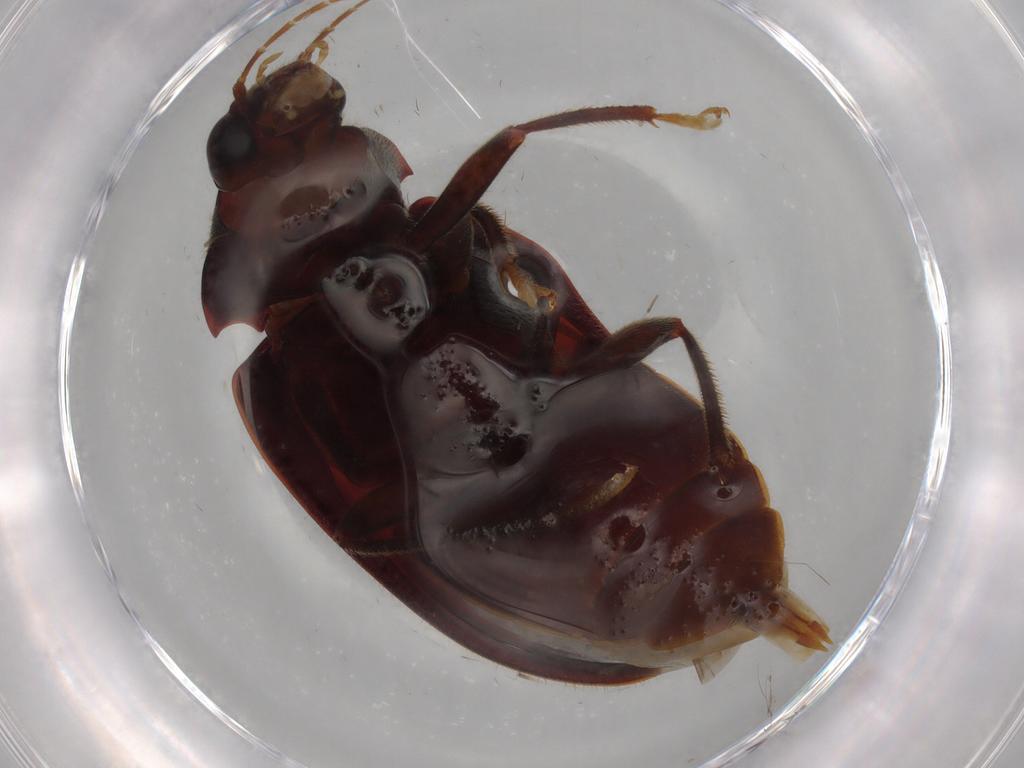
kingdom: Animalia
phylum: Arthropoda
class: Insecta
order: Coleoptera
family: Ptilodactylidae
